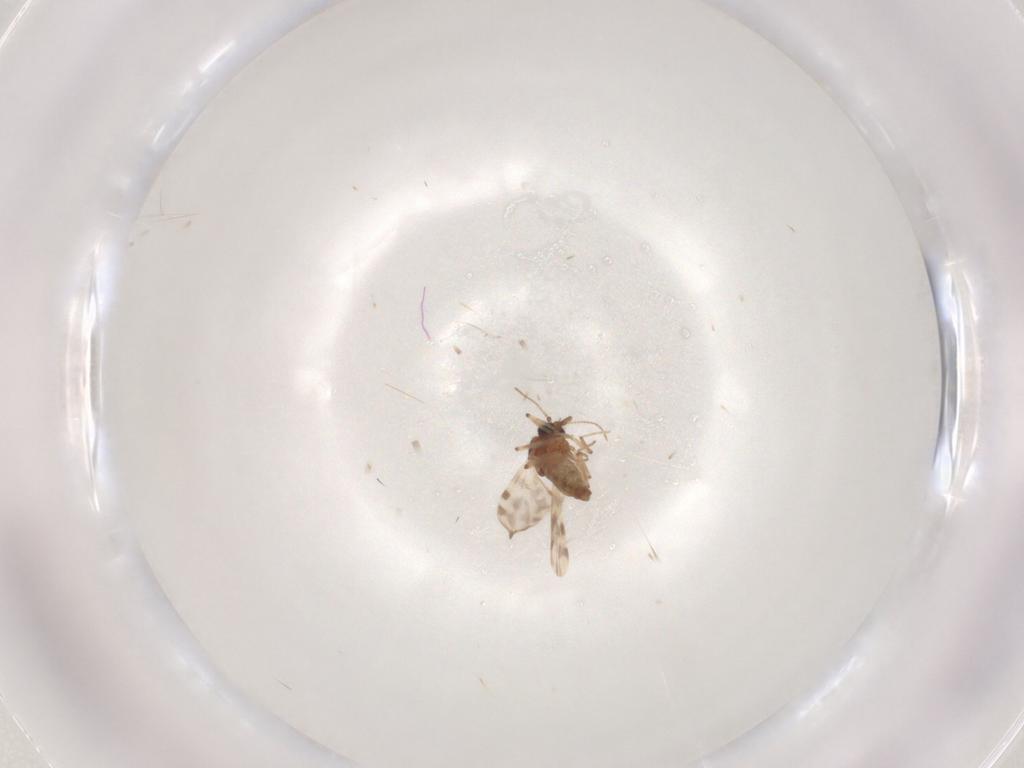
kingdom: Animalia
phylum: Arthropoda
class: Insecta
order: Diptera
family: Ceratopogonidae
